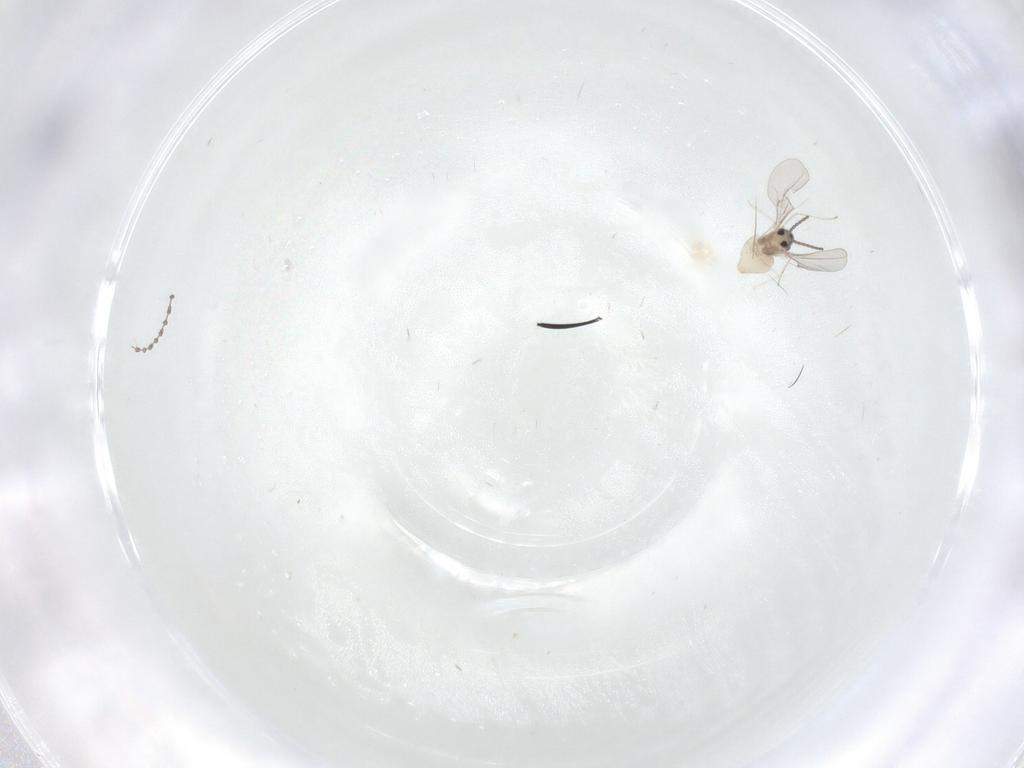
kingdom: Animalia
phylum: Arthropoda
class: Insecta
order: Diptera
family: Cecidomyiidae
